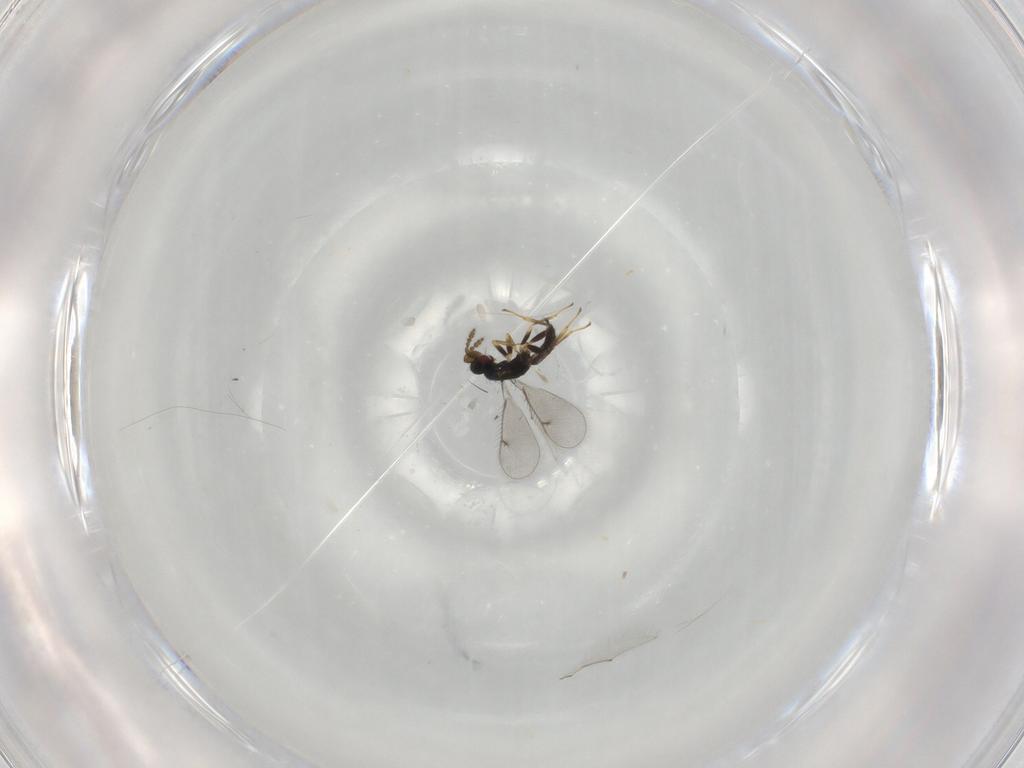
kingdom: Animalia
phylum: Arthropoda
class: Insecta
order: Hymenoptera
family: Eulophidae
